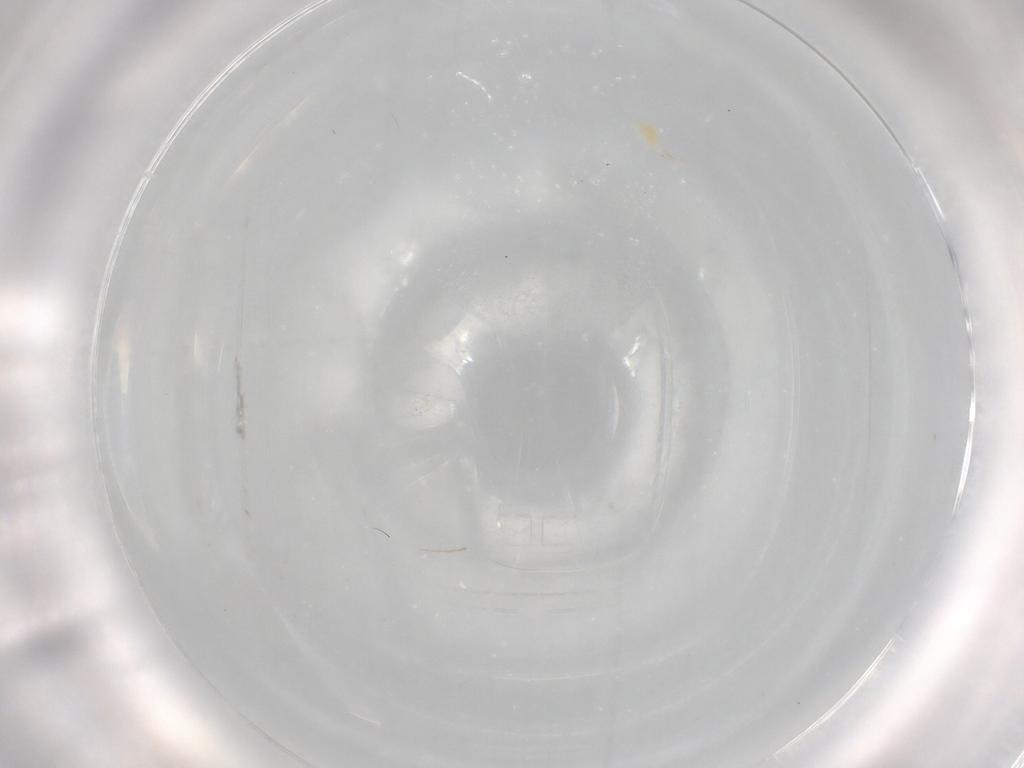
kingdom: Animalia
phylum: Arthropoda
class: Arachnida
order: Trombidiformes
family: Tetranychidae
